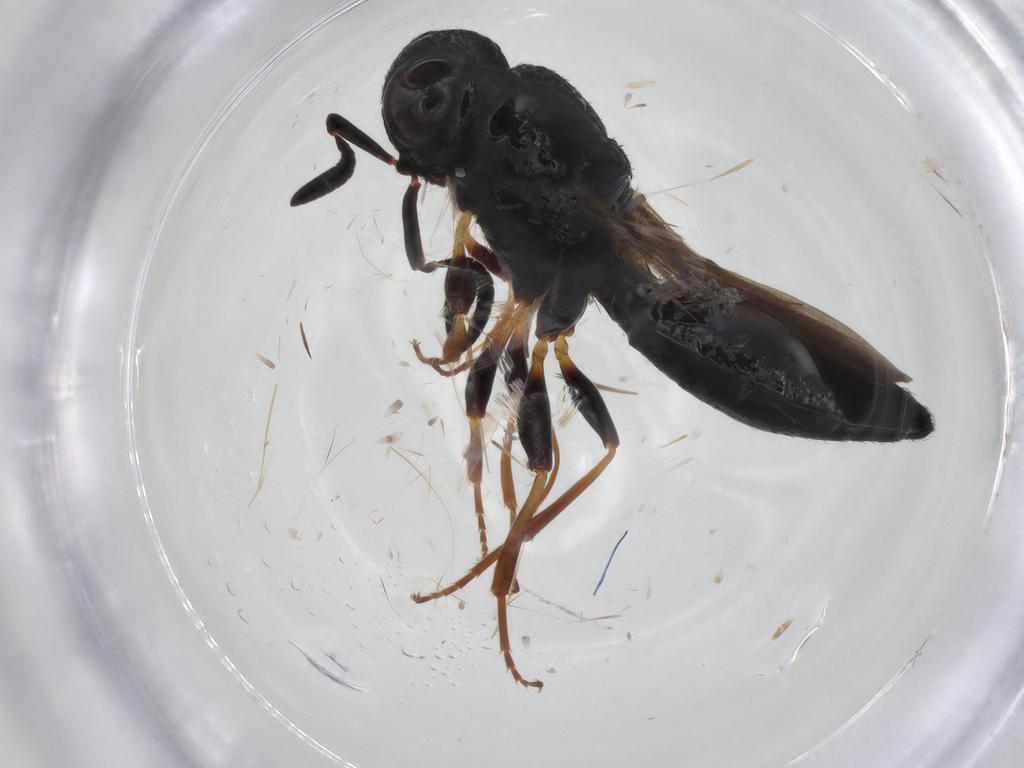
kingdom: Animalia
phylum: Arthropoda
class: Insecta
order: Hymenoptera
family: Scelionidae
